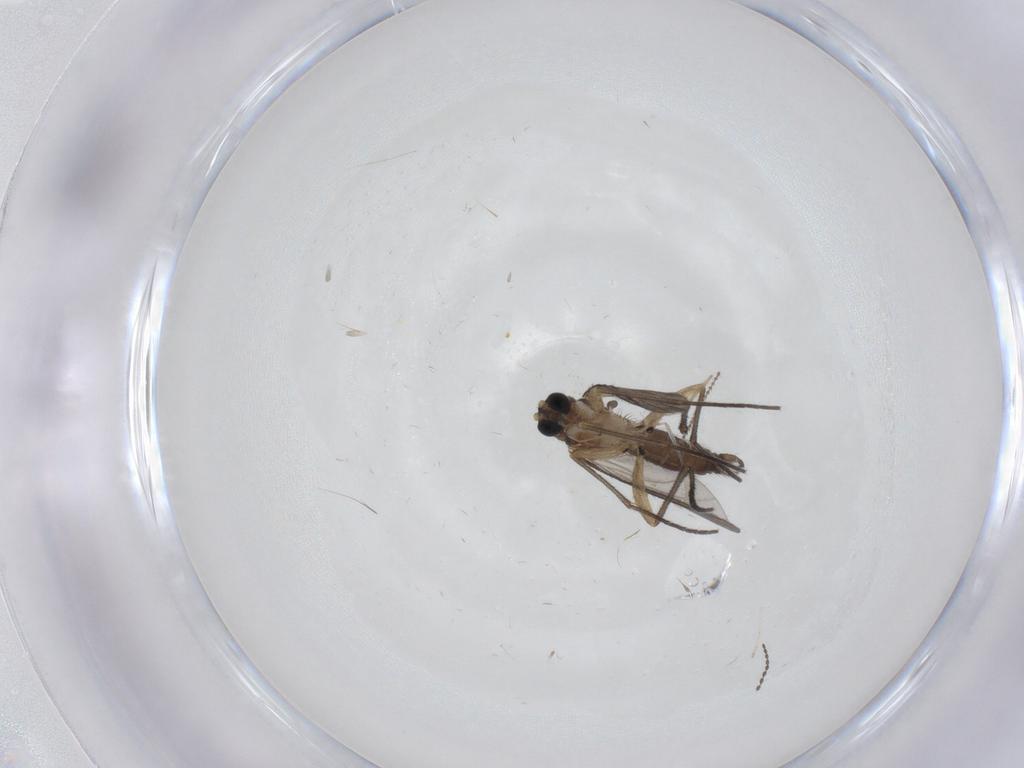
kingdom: Animalia
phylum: Arthropoda
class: Insecta
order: Diptera
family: Sciaridae
